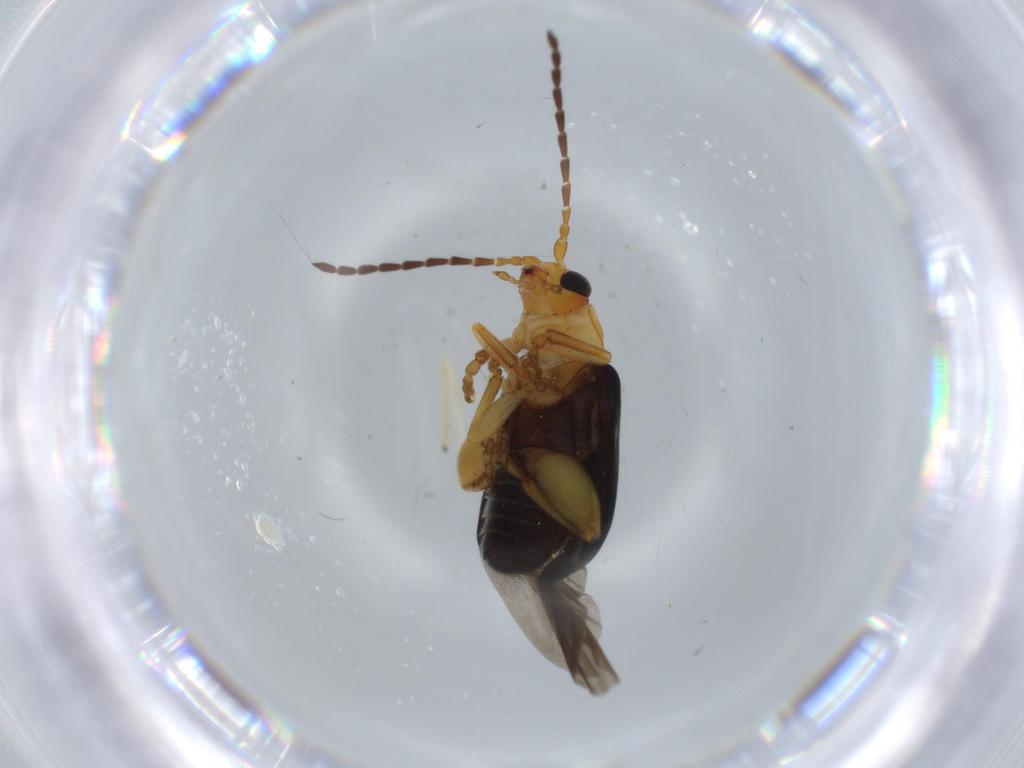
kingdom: Animalia
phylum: Arthropoda
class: Insecta
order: Coleoptera
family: Chrysomelidae
